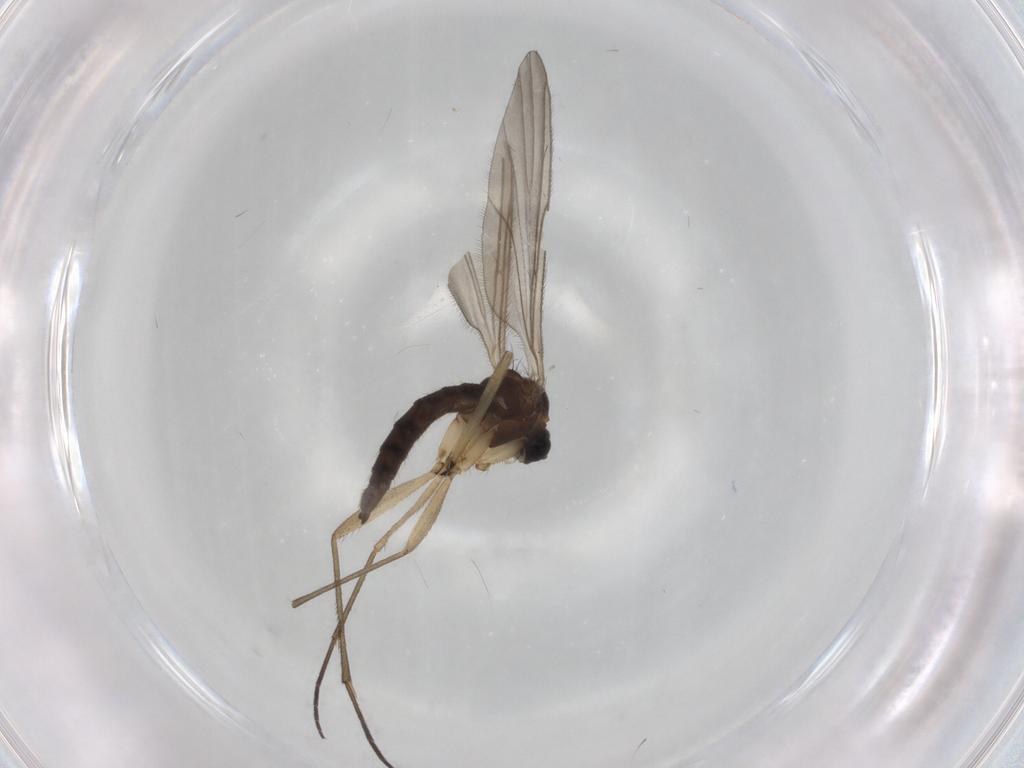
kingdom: Animalia
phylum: Arthropoda
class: Insecta
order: Diptera
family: Sciaridae
